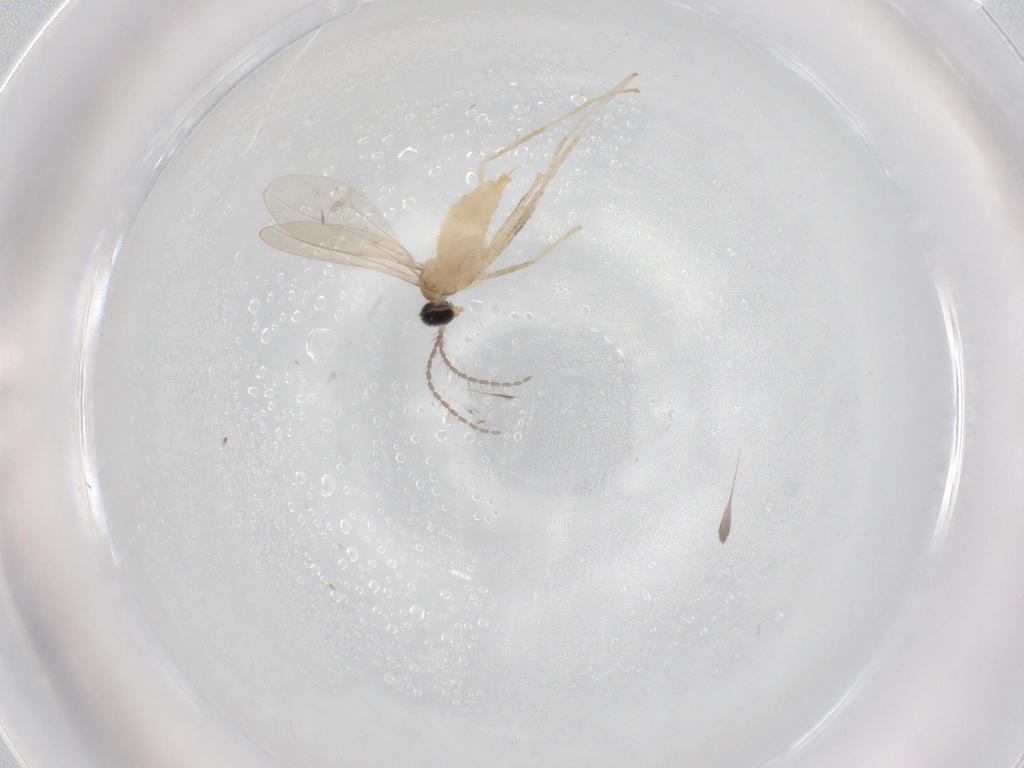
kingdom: Animalia
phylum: Arthropoda
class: Insecta
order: Diptera
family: Cecidomyiidae
